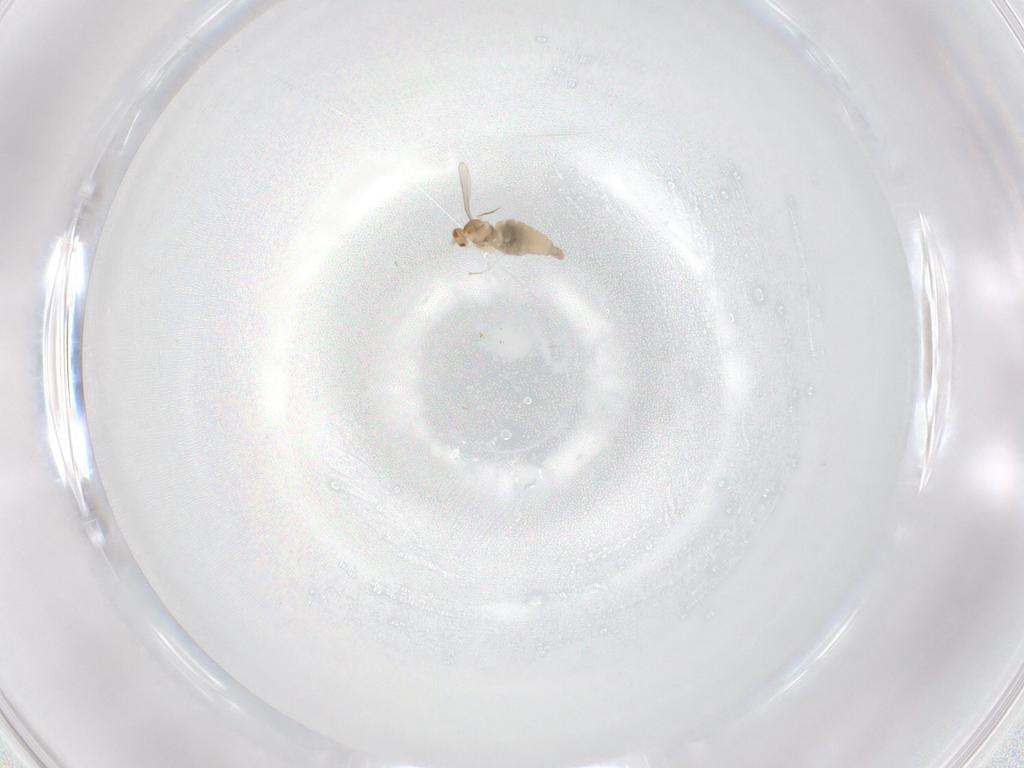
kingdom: Animalia
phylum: Arthropoda
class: Insecta
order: Diptera
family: Cecidomyiidae
